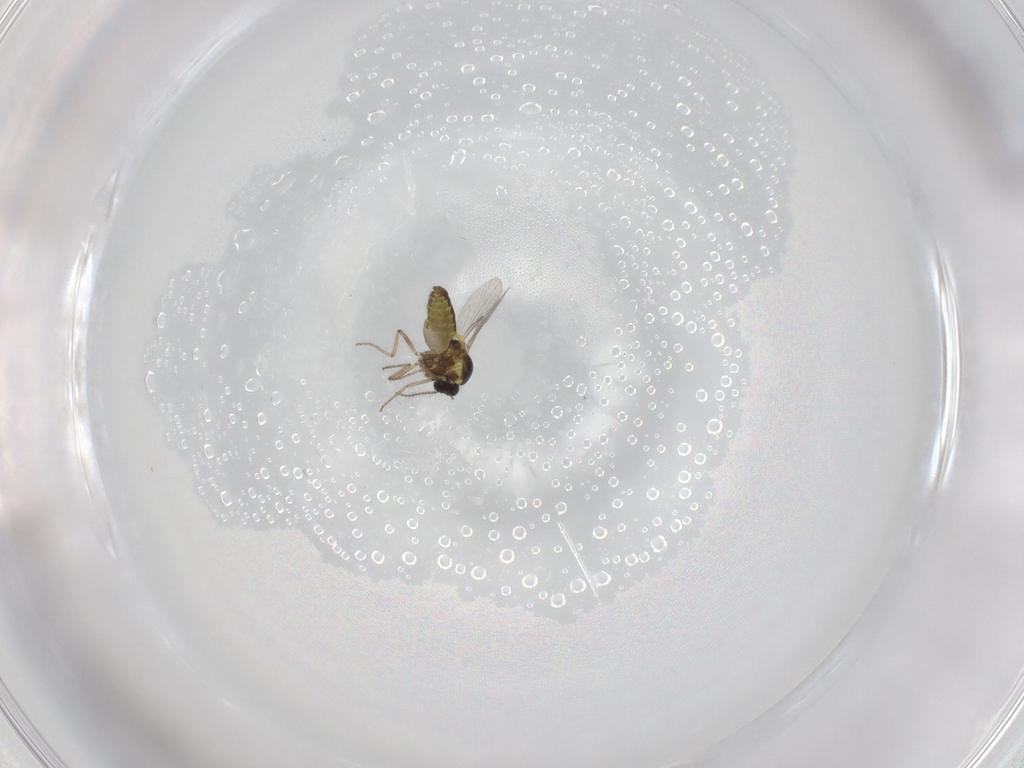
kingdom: Animalia
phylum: Arthropoda
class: Insecta
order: Diptera
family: Ceratopogonidae
